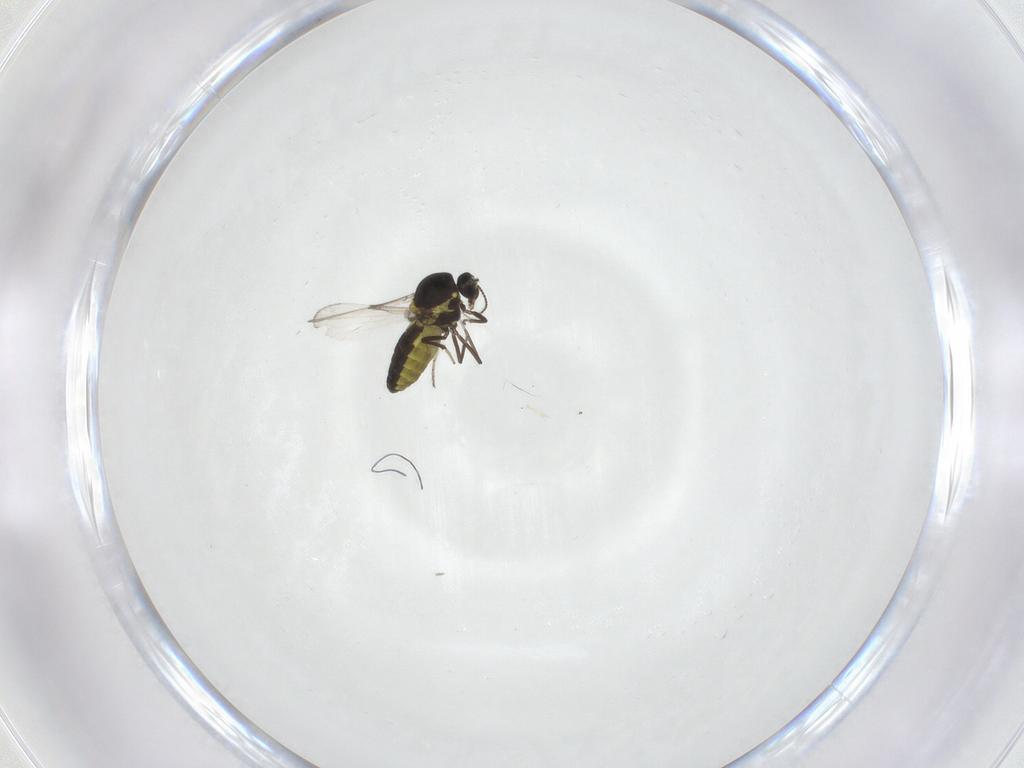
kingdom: Animalia
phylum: Arthropoda
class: Insecta
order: Diptera
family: Ceratopogonidae
